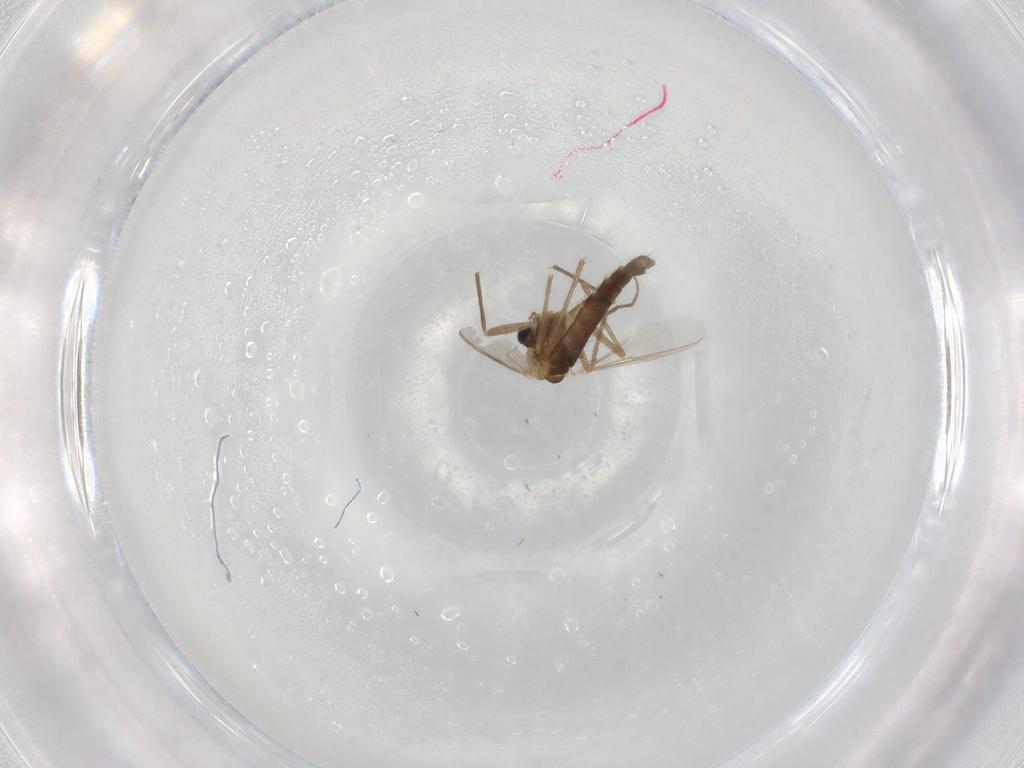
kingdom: Animalia
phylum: Arthropoda
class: Insecta
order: Diptera
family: Chironomidae
